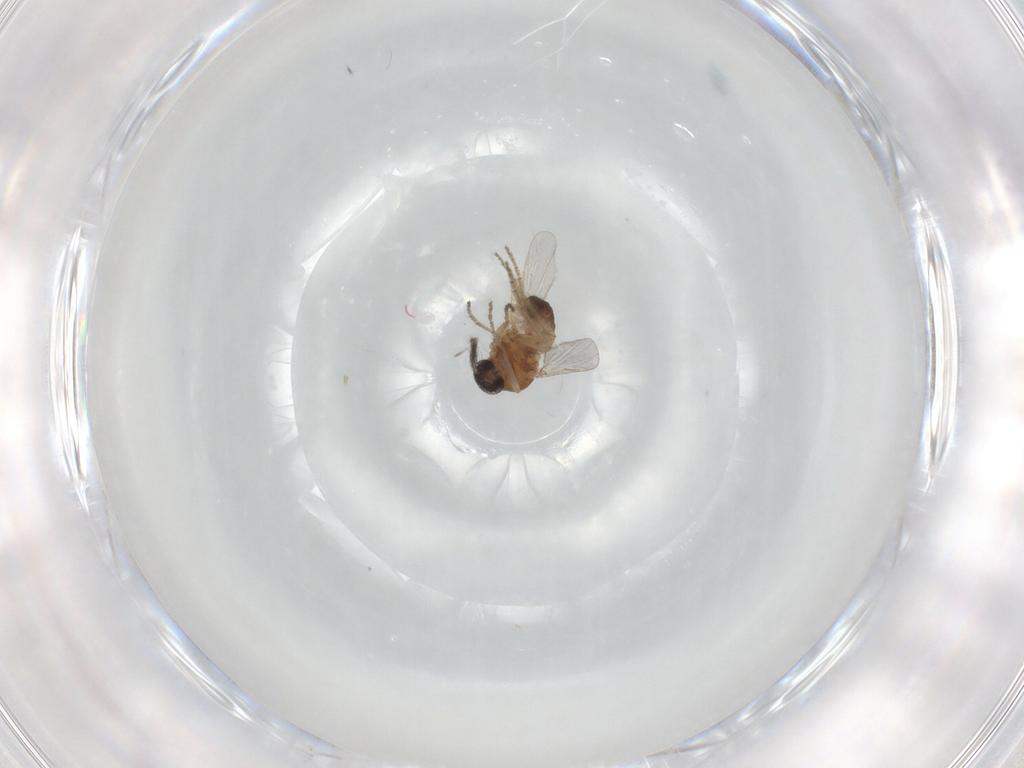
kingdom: Animalia
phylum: Arthropoda
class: Insecta
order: Diptera
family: Ceratopogonidae
